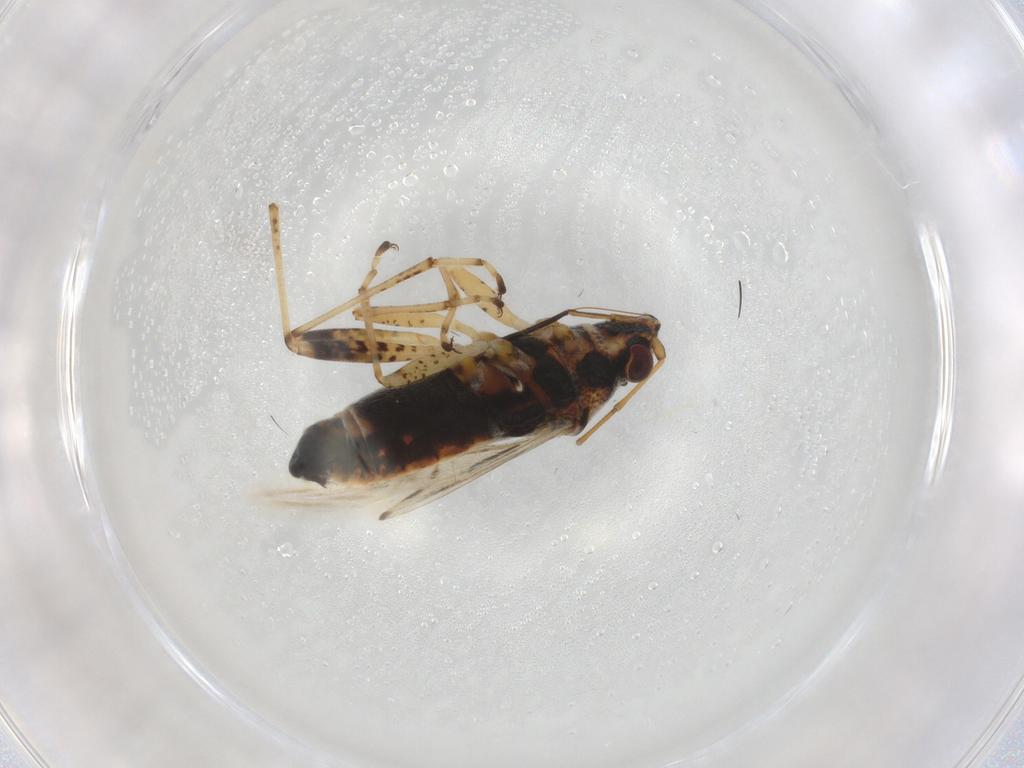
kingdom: Animalia
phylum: Arthropoda
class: Insecta
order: Hemiptera
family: Lygaeidae
